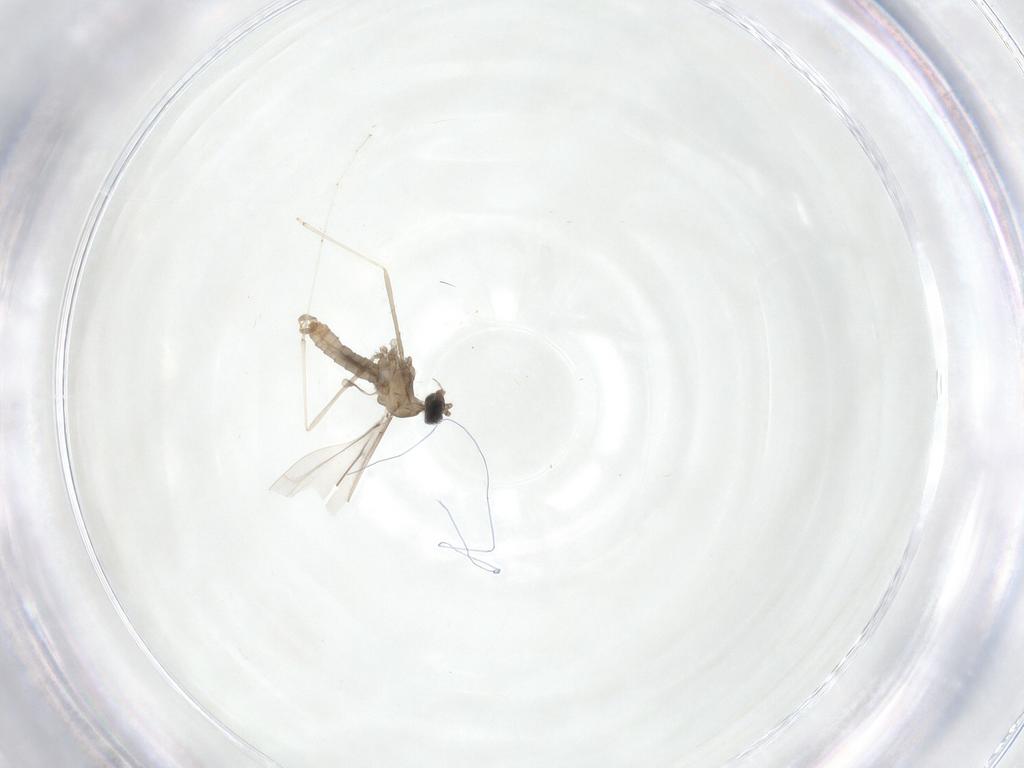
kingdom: Animalia
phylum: Arthropoda
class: Insecta
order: Diptera
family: Cecidomyiidae
